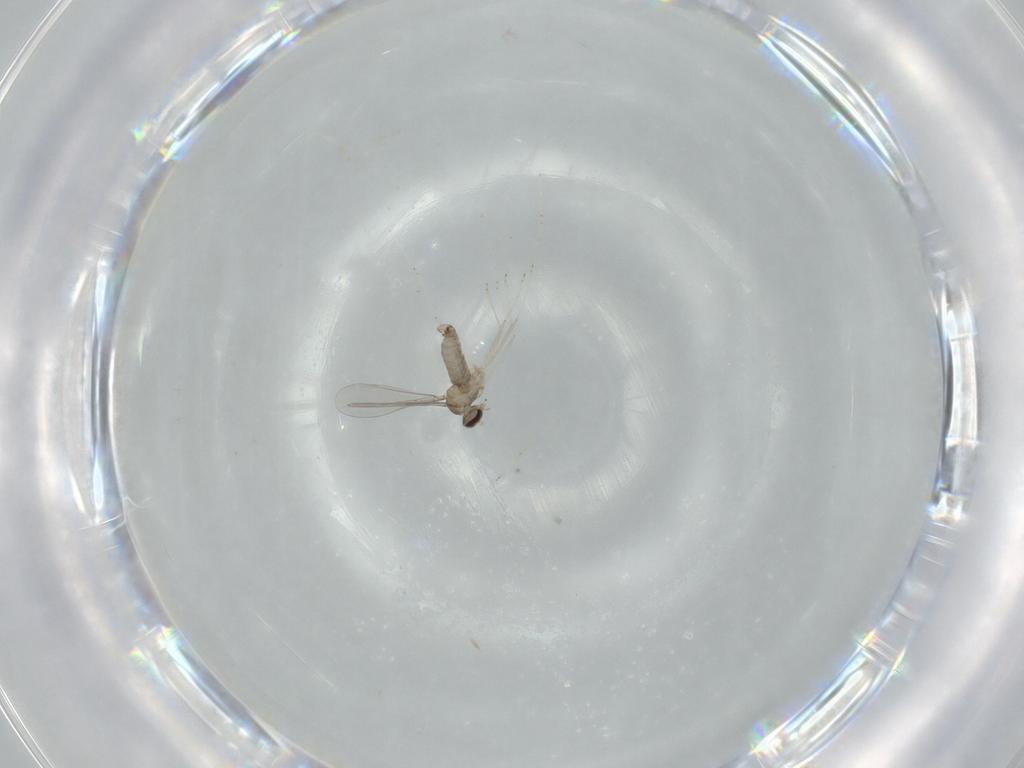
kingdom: Animalia
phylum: Arthropoda
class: Insecta
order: Diptera
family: Cecidomyiidae
